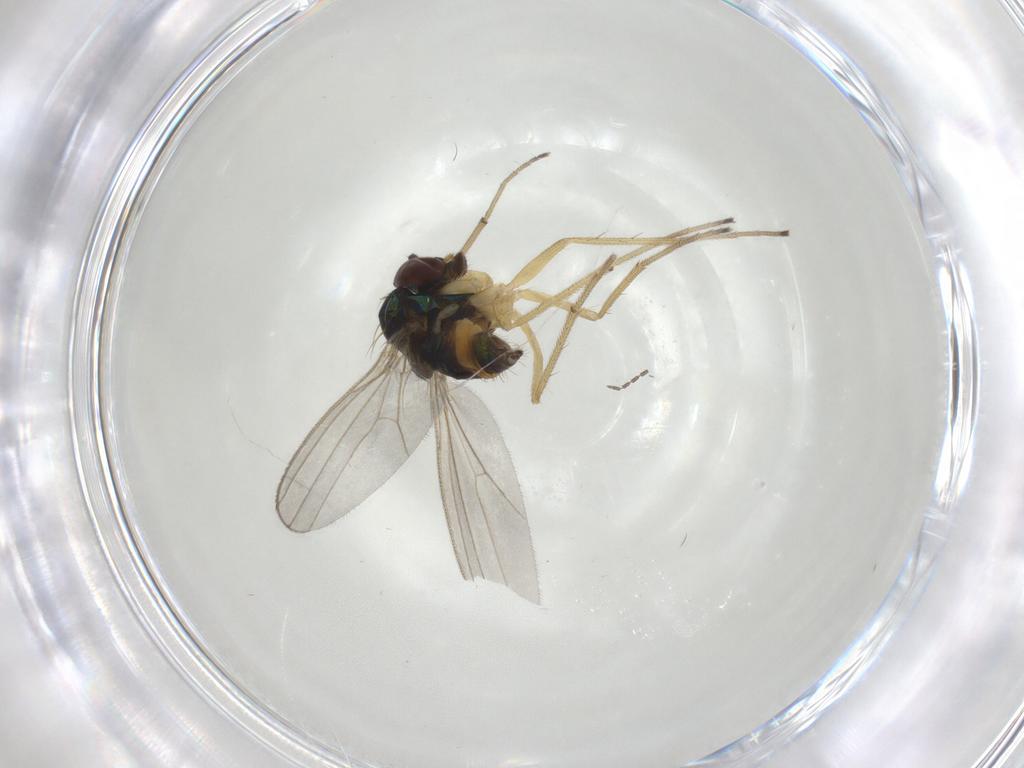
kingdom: Animalia
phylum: Arthropoda
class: Insecta
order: Diptera
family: Dolichopodidae
